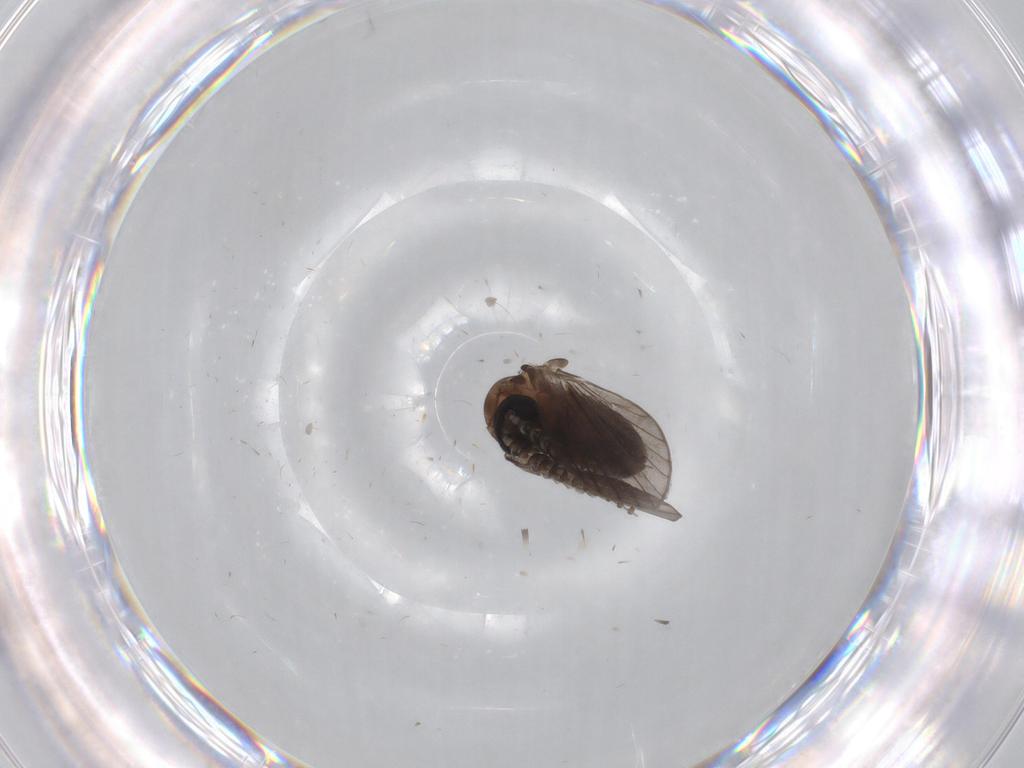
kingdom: Animalia
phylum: Arthropoda
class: Insecta
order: Diptera
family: Psychodidae
